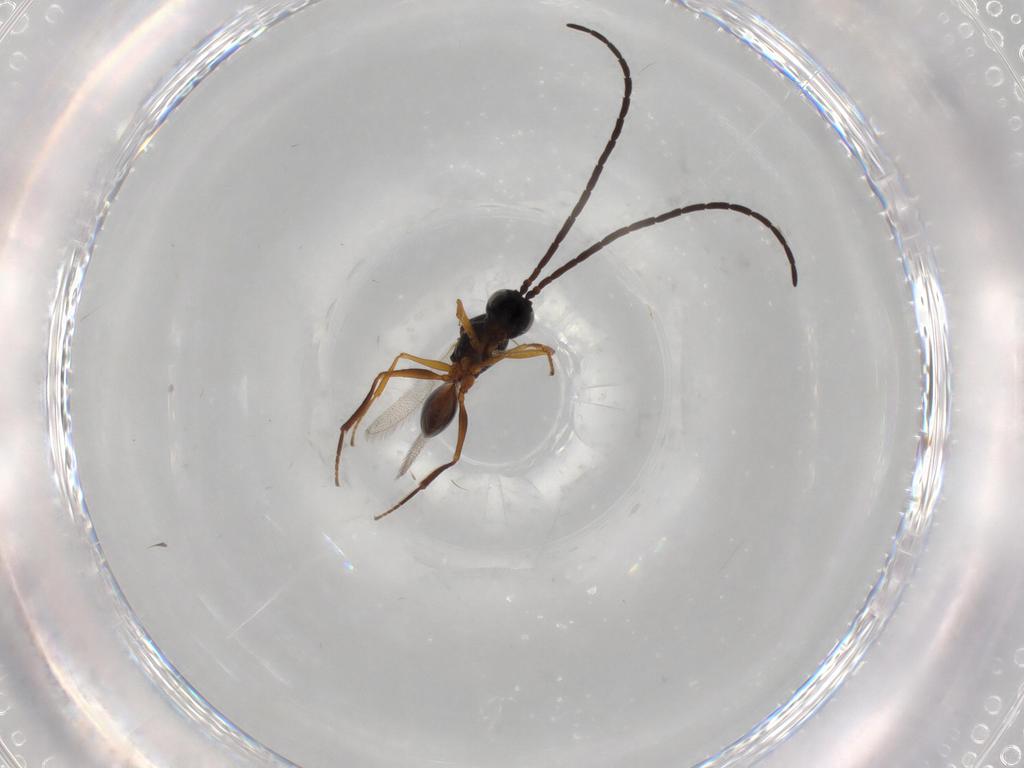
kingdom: Animalia
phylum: Arthropoda
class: Insecta
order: Hymenoptera
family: Figitidae
